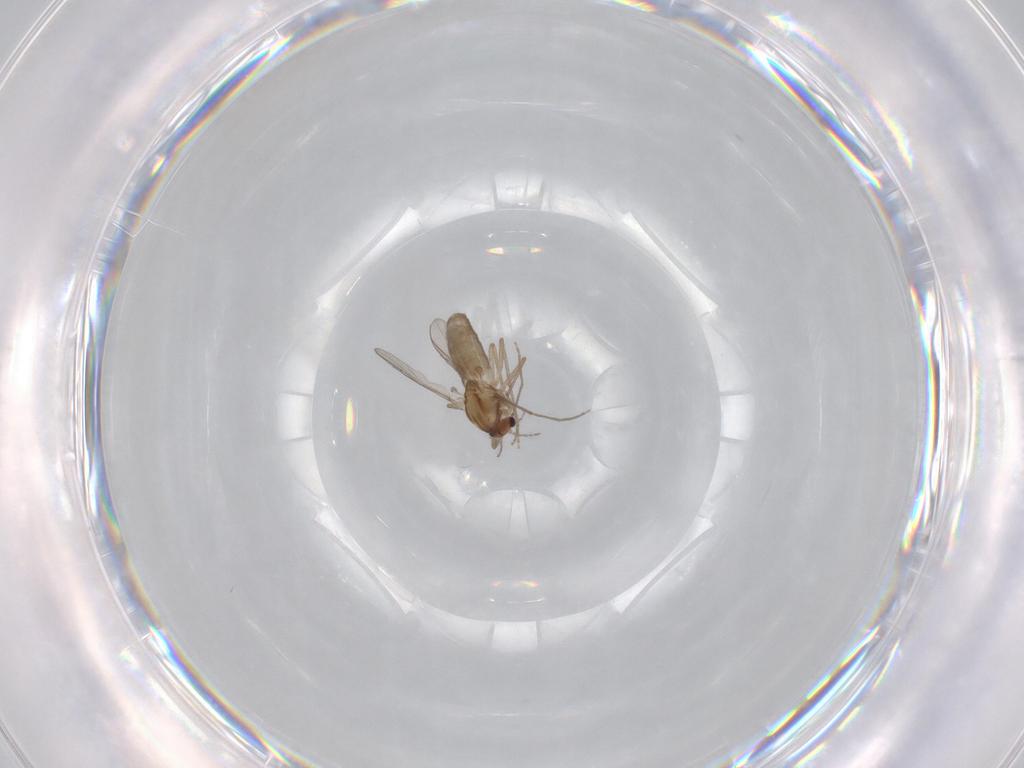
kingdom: Animalia
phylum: Arthropoda
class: Insecta
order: Diptera
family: Chironomidae
